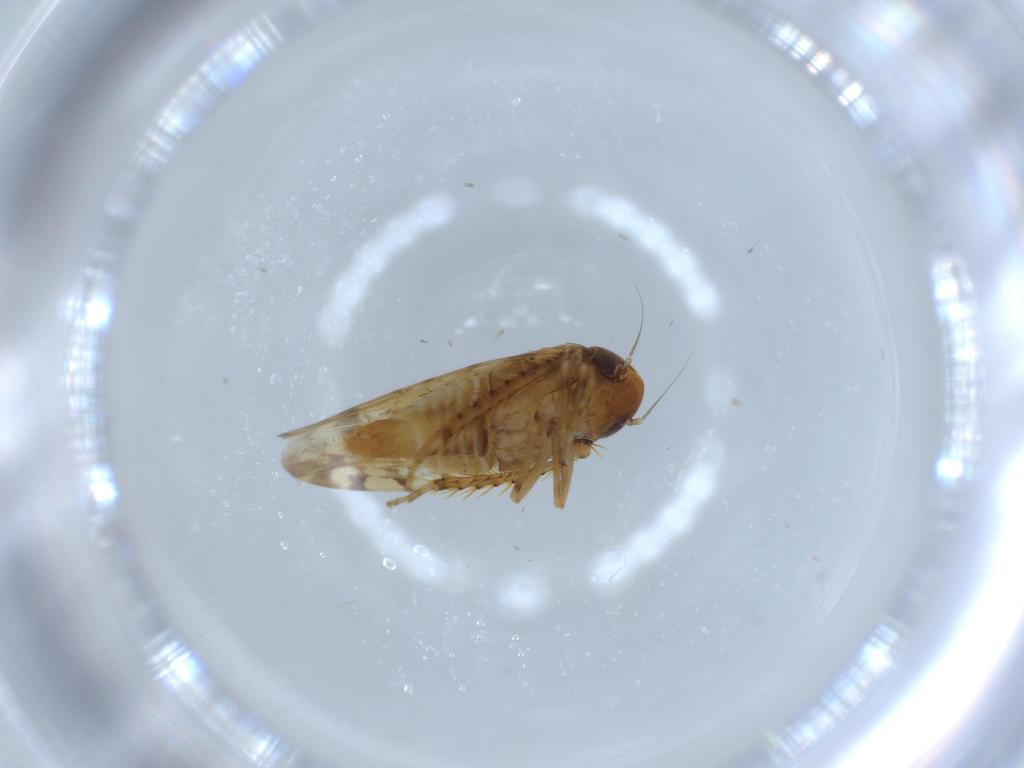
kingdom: Animalia
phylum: Arthropoda
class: Insecta
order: Hemiptera
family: Cicadellidae
